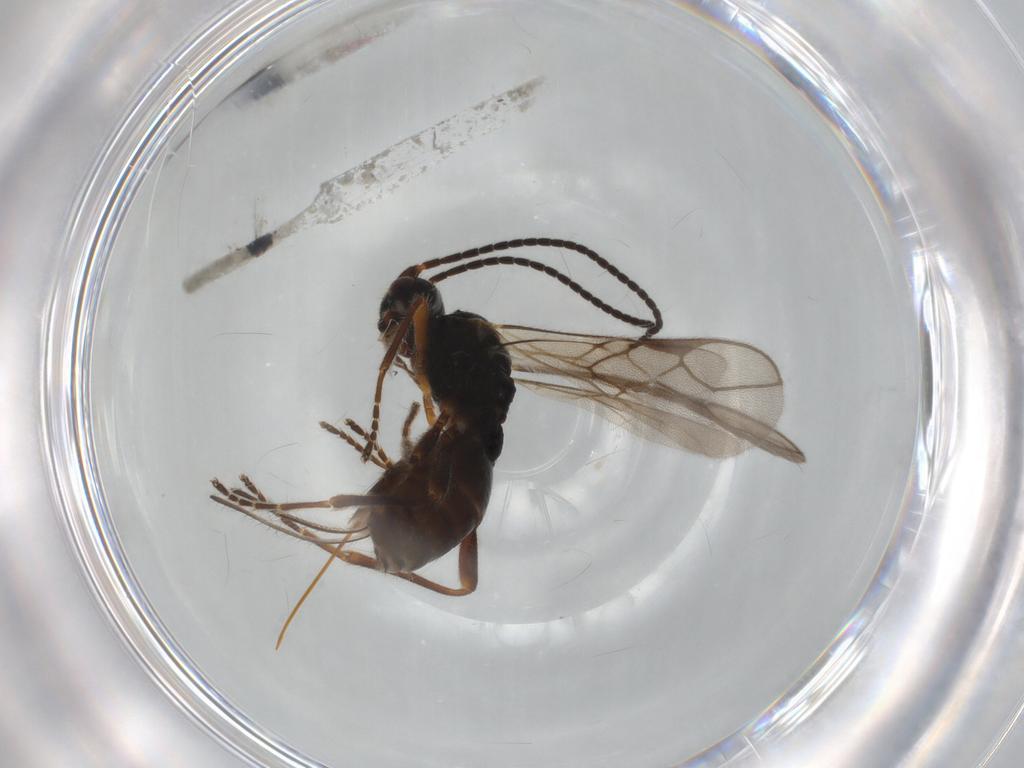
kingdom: Animalia
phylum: Arthropoda
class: Insecta
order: Hymenoptera
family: Braconidae
